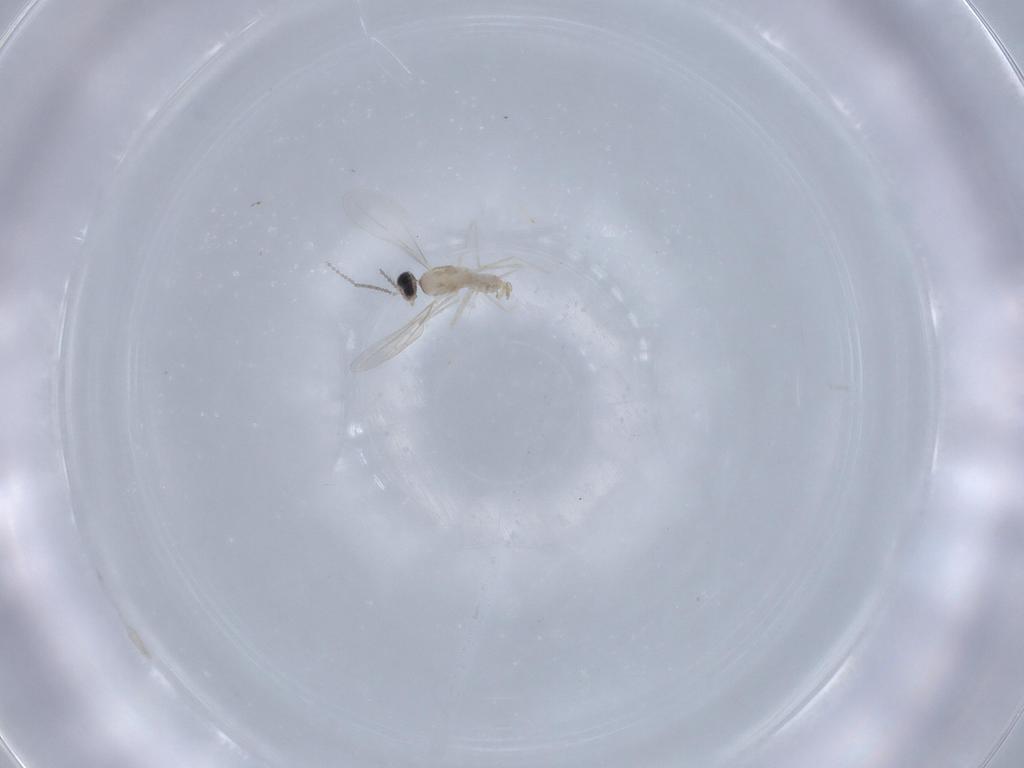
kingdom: Animalia
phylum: Arthropoda
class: Insecta
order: Diptera
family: Cecidomyiidae
